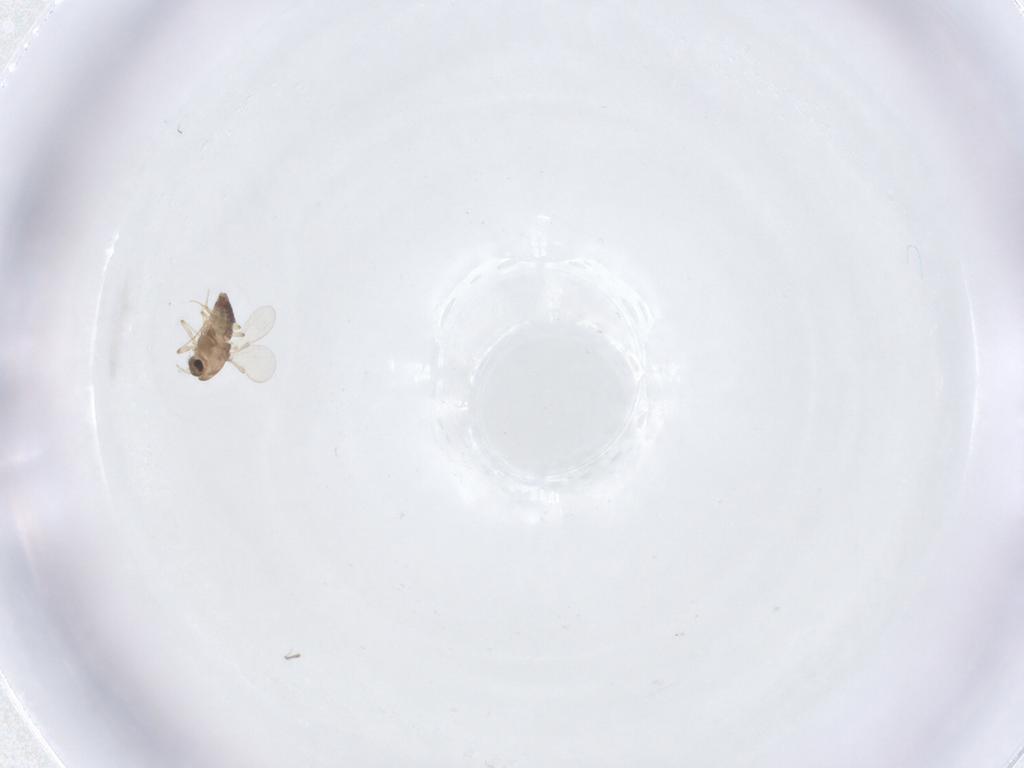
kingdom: Animalia
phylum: Arthropoda
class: Insecta
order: Diptera
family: Chironomidae
